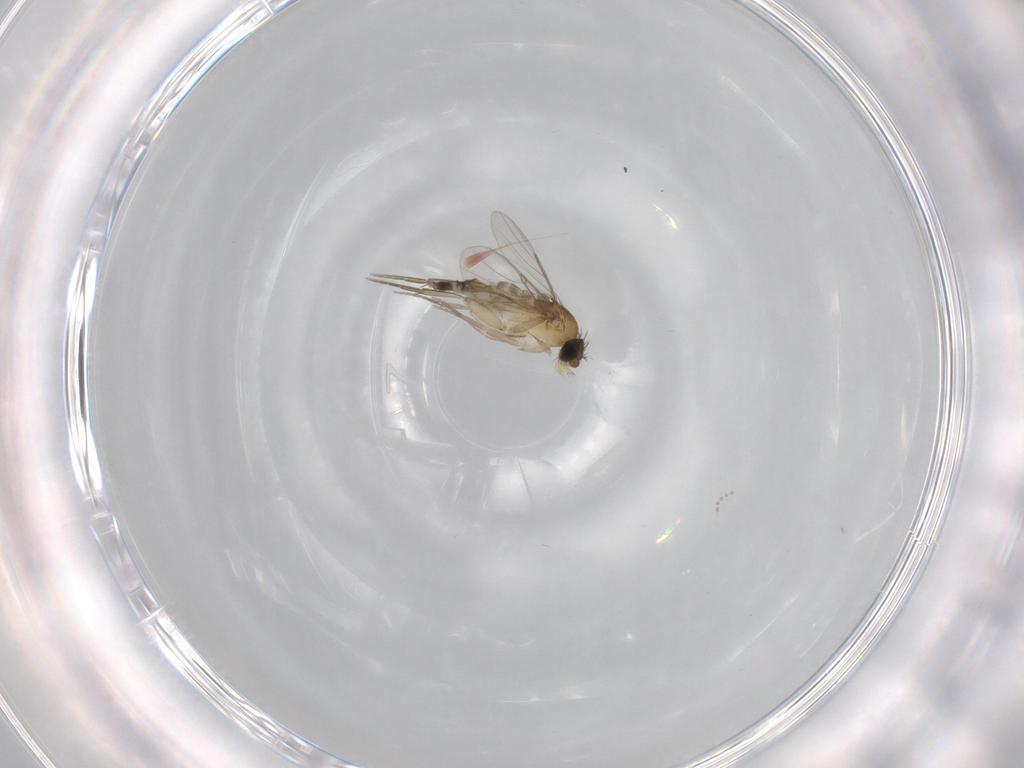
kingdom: Animalia
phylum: Arthropoda
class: Insecta
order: Diptera
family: Phoridae
